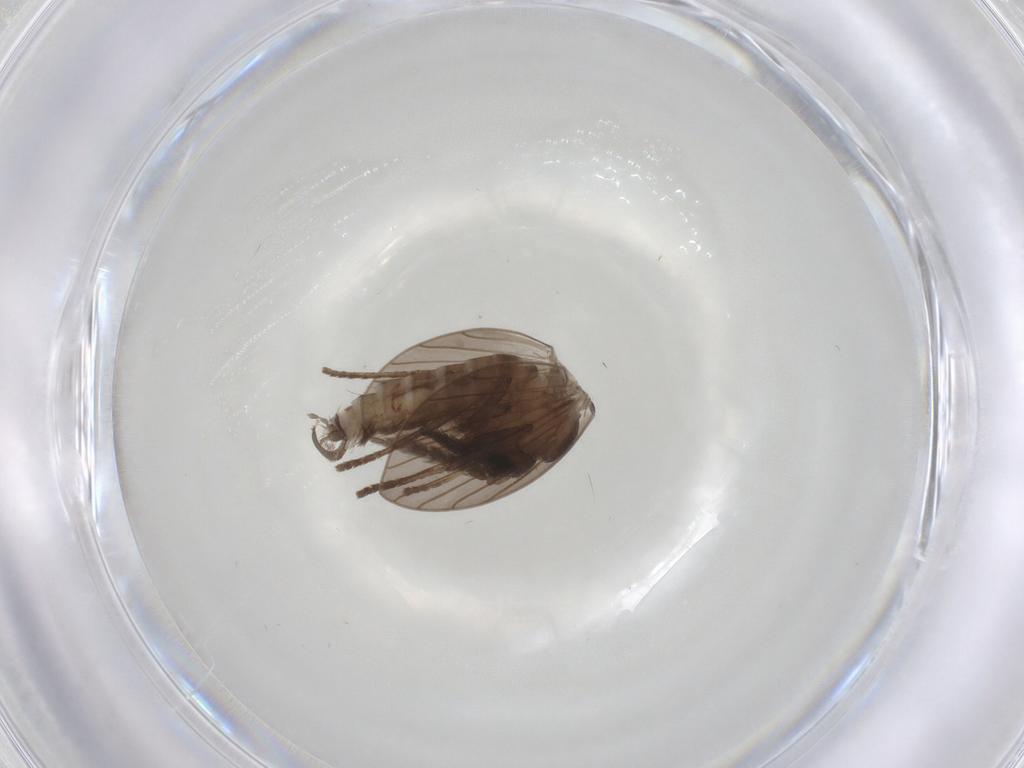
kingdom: Animalia
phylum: Arthropoda
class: Insecta
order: Diptera
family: Psychodidae
